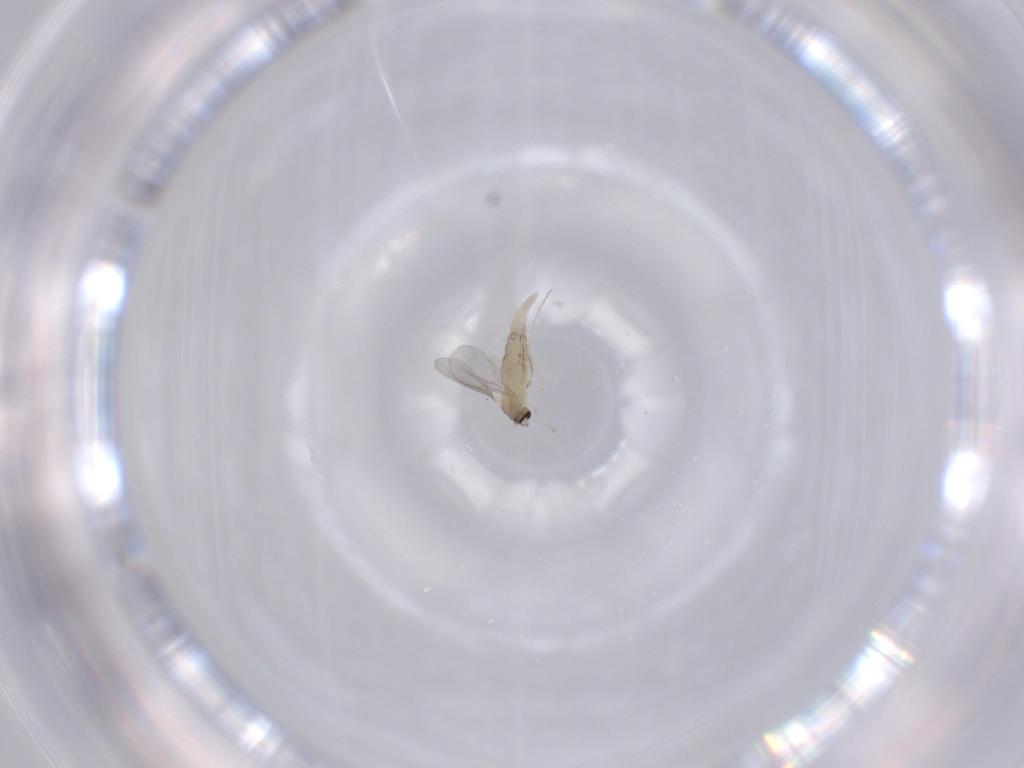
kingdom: Animalia
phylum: Arthropoda
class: Insecta
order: Diptera
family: Cecidomyiidae
